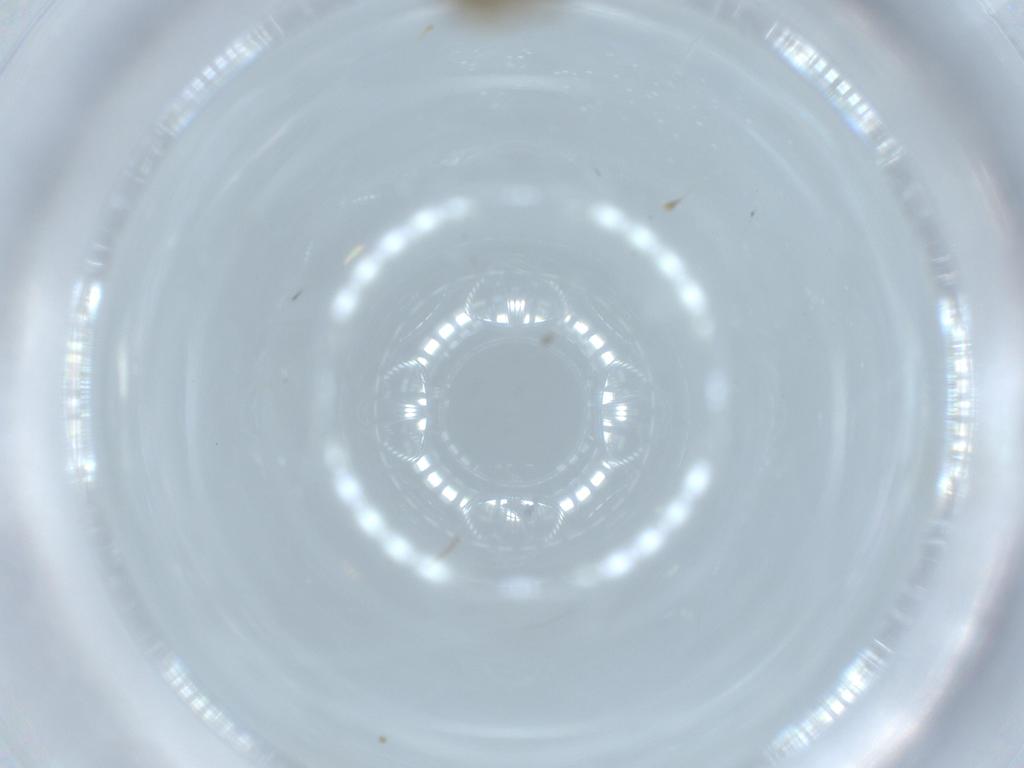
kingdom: Animalia
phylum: Arthropoda
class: Insecta
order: Diptera
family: Chironomidae
